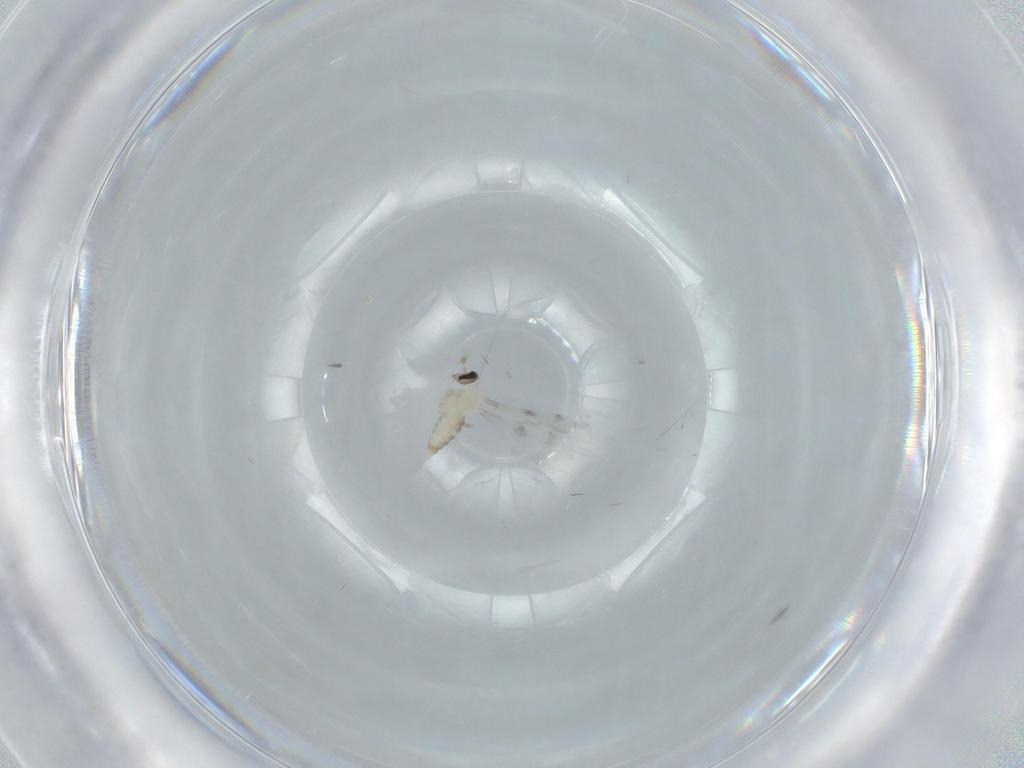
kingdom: Animalia
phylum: Arthropoda
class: Insecta
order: Diptera
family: Cecidomyiidae
